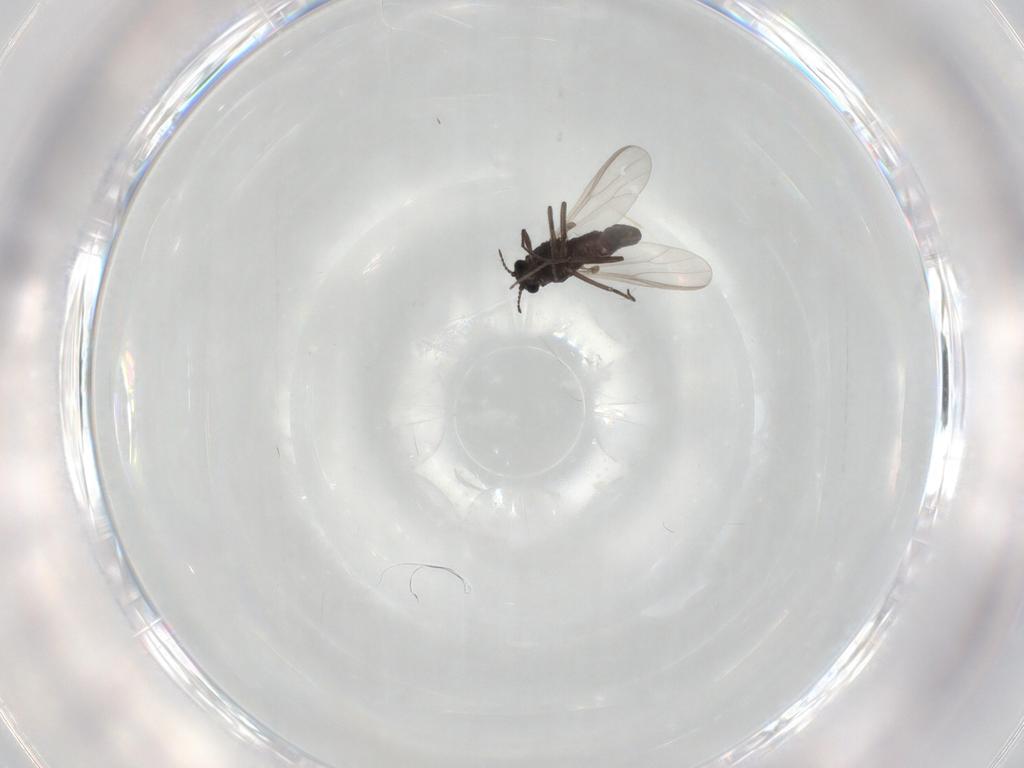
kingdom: Animalia
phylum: Arthropoda
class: Insecta
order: Diptera
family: Chironomidae
